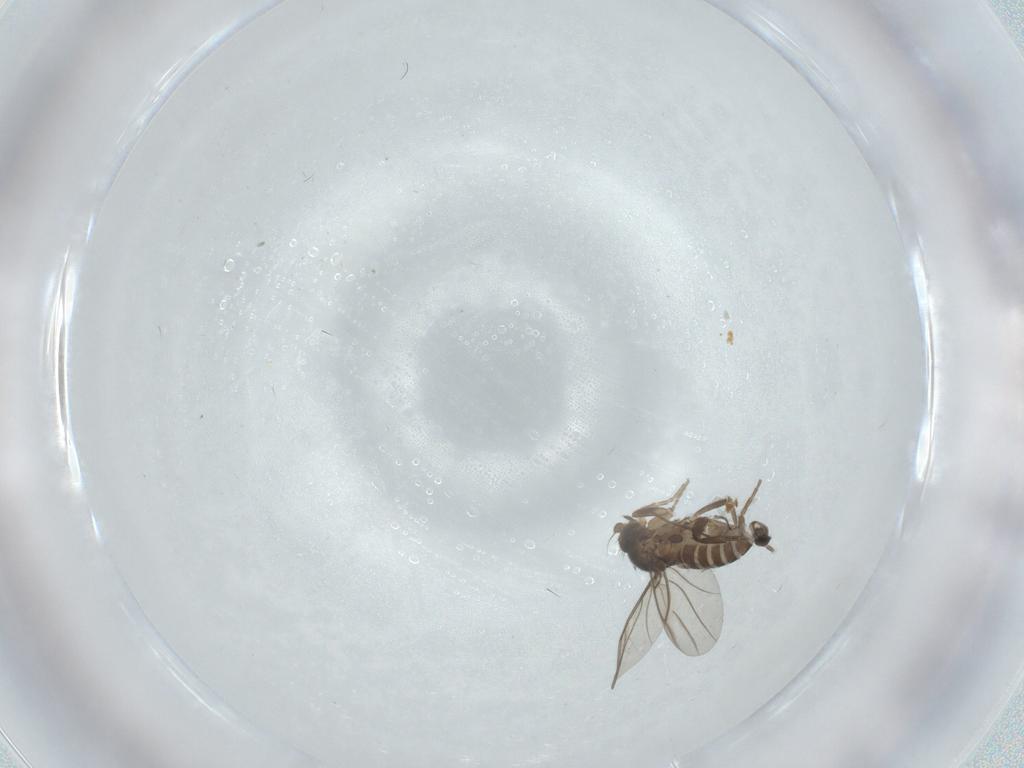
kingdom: Animalia
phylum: Arthropoda
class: Insecta
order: Diptera
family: Phoridae
